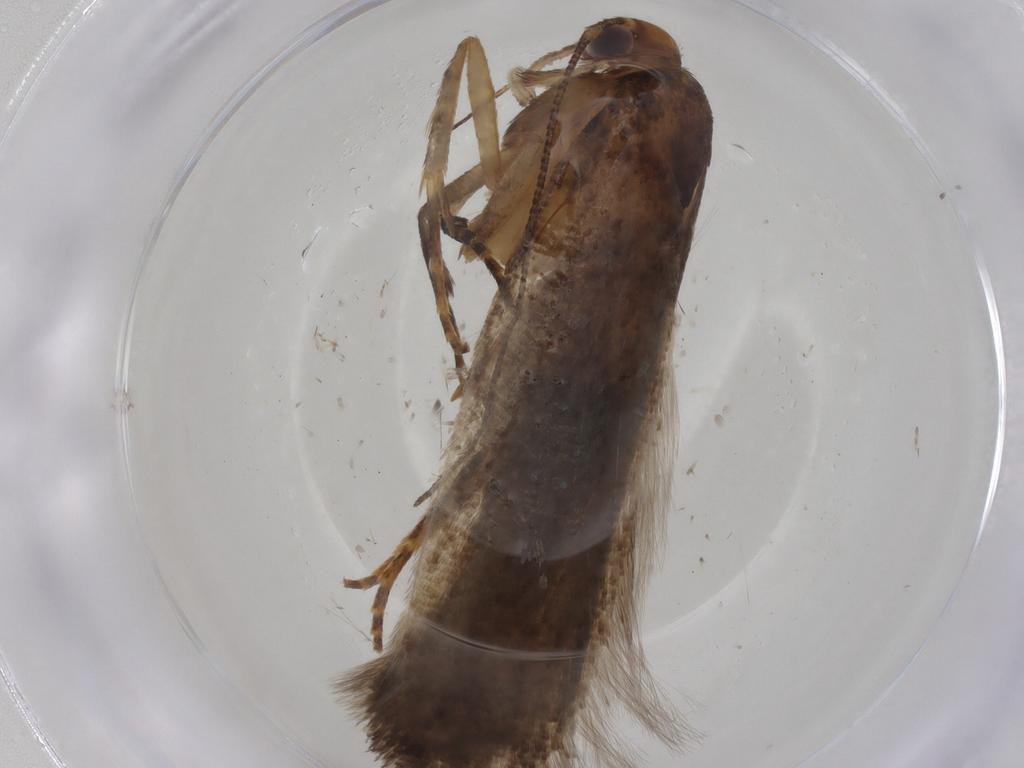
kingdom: Animalia
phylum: Arthropoda
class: Insecta
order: Lepidoptera
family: Gelechiidae
